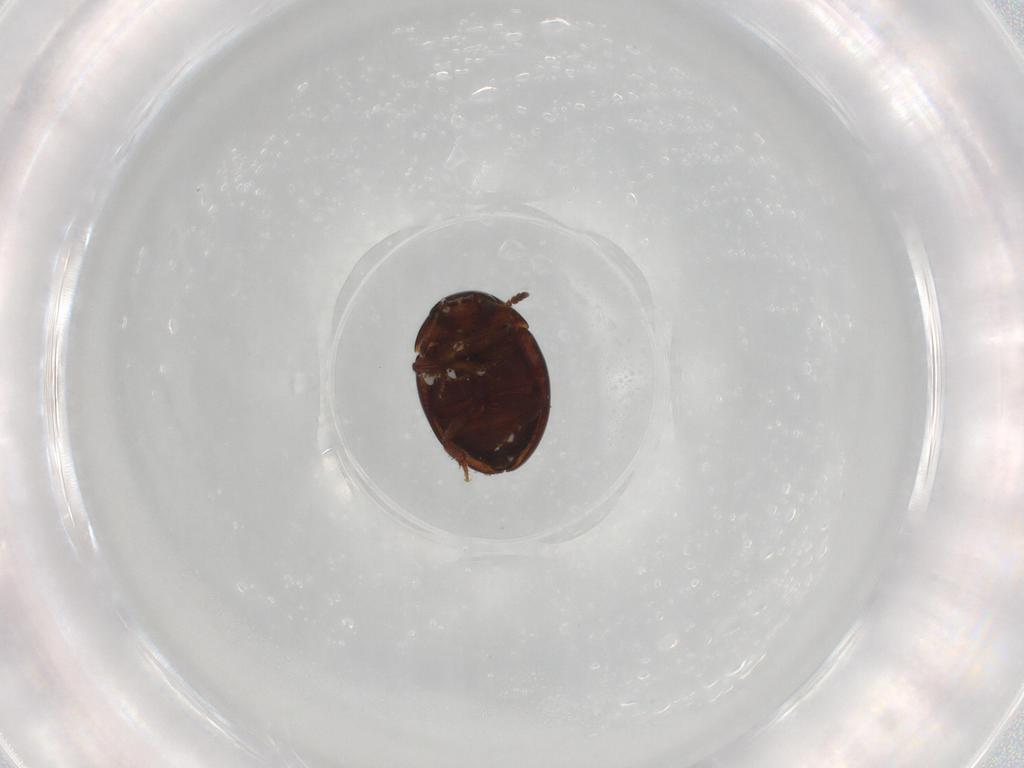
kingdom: Animalia
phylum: Arthropoda
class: Insecta
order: Coleoptera
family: Leiodidae
